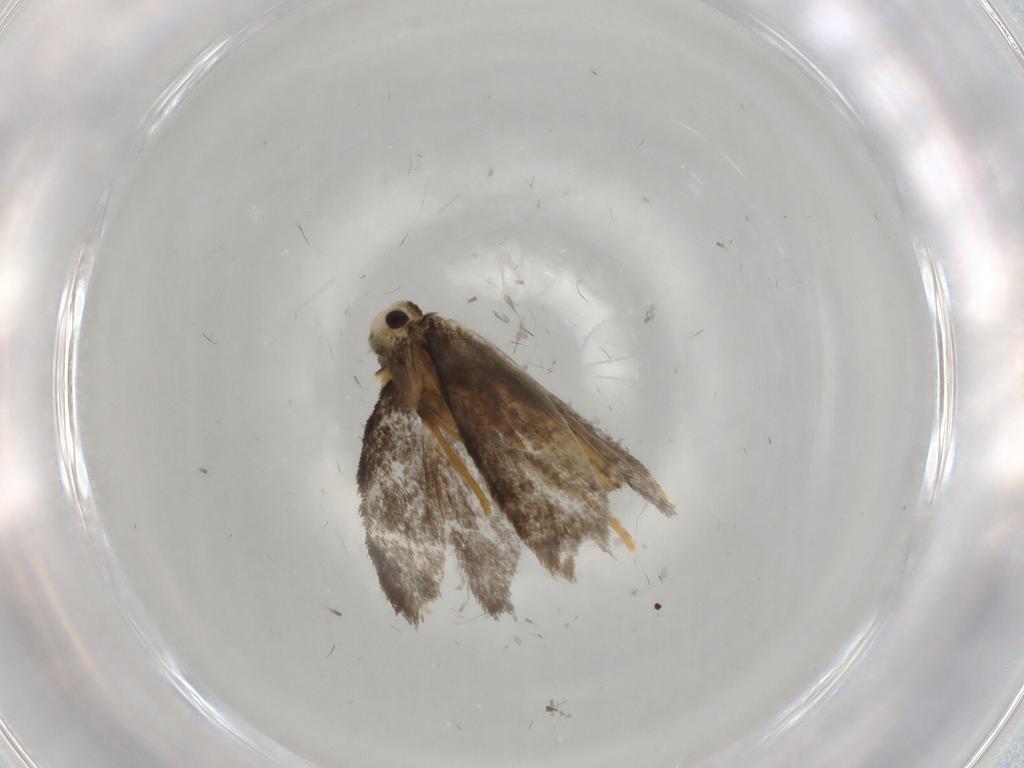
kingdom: Animalia
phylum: Arthropoda
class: Insecta
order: Lepidoptera
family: Psychidae
